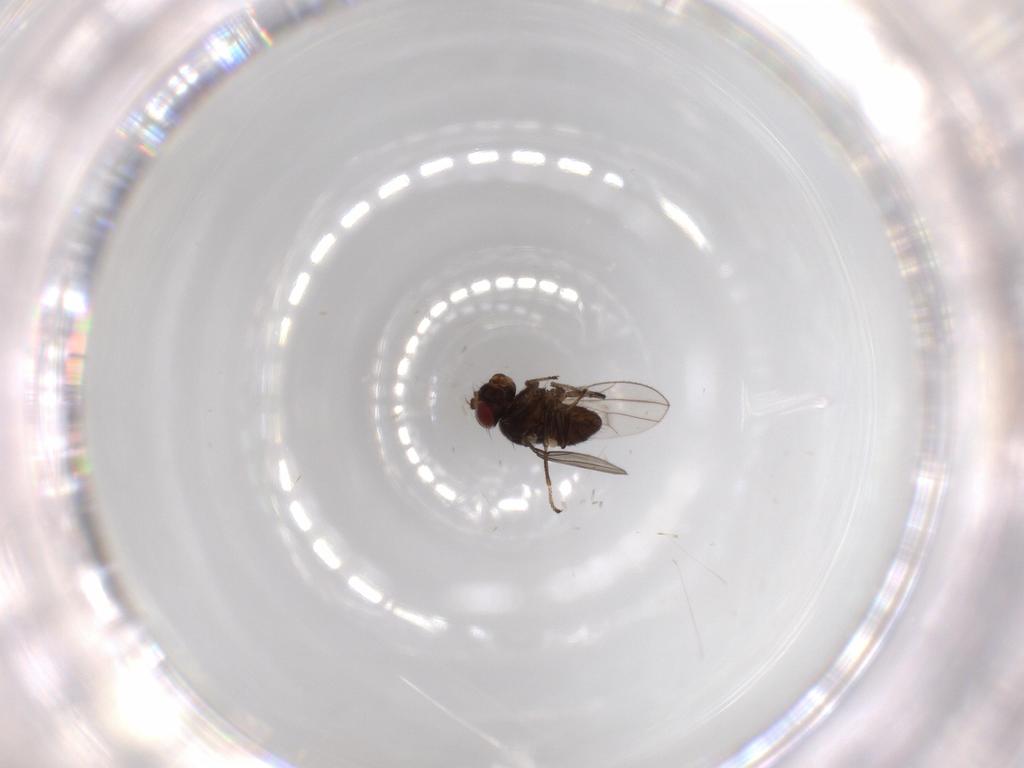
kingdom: Animalia
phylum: Arthropoda
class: Insecta
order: Diptera
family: Ephydridae
